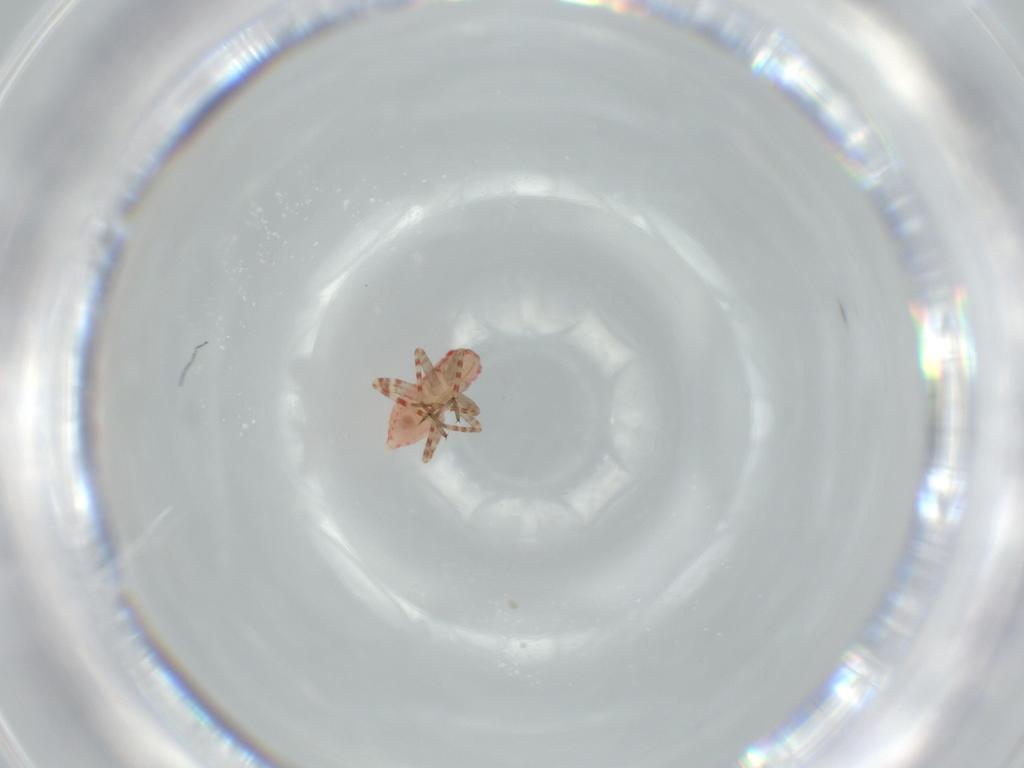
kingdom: Animalia
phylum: Arthropoda
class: Insecta
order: Hemiptera
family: Miridae
